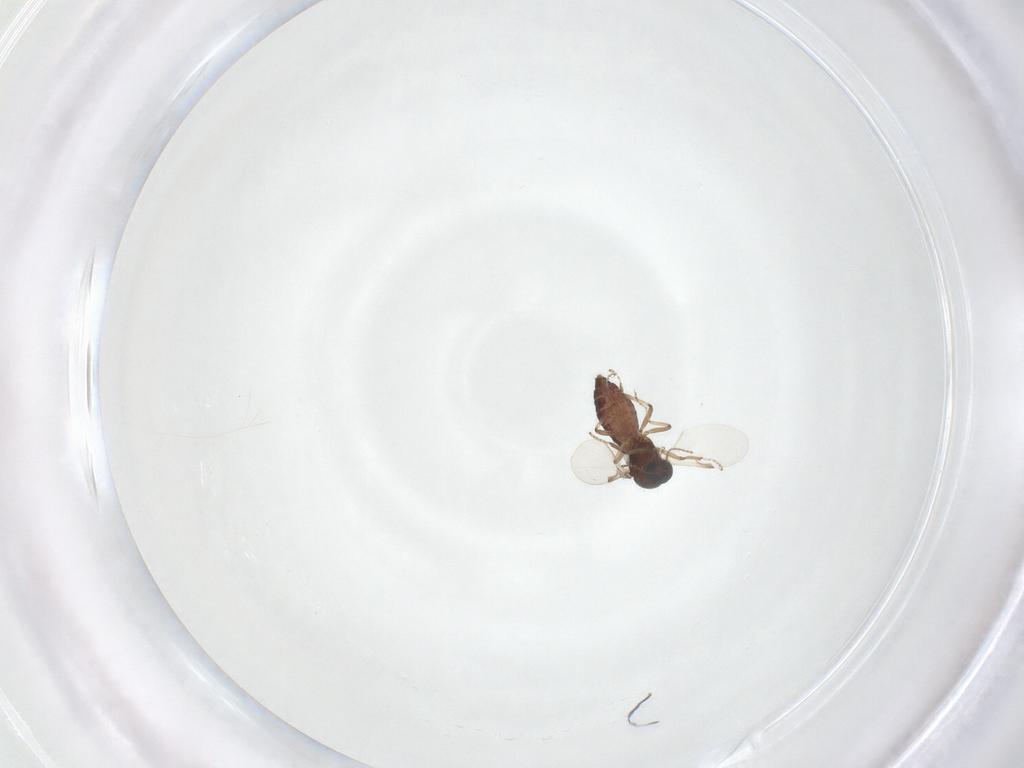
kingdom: Animalia
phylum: Arthropoda
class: Insecta
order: Diptera
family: Ceratopogonidae
